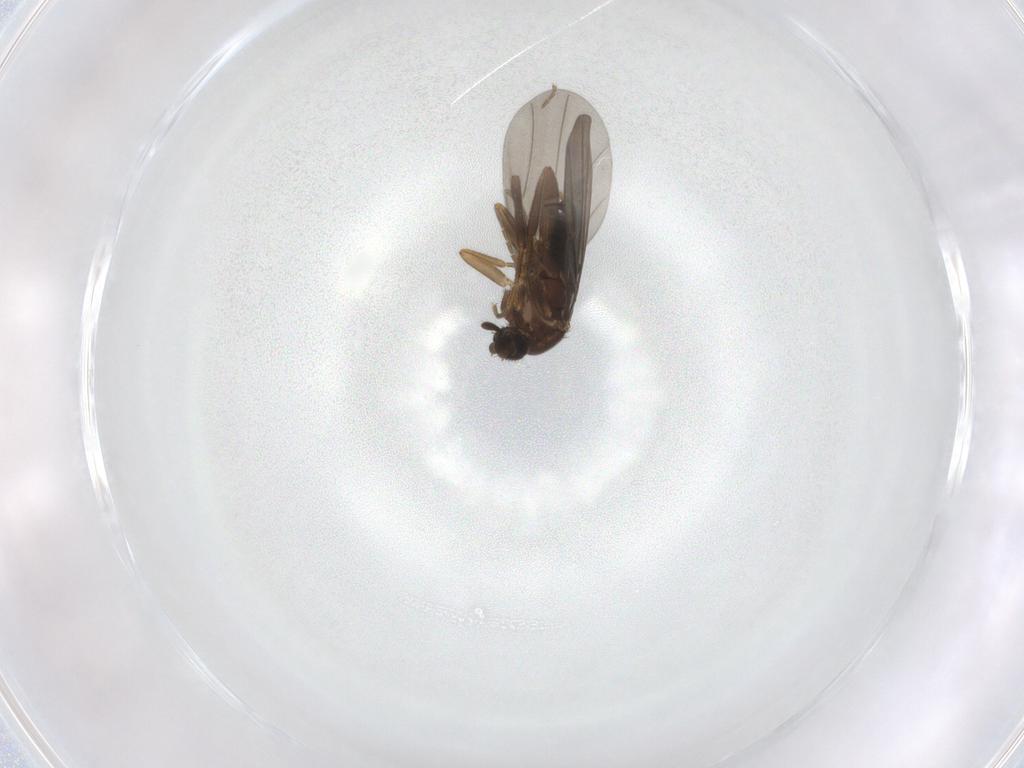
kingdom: Animalia
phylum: Arthropoda
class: Insecta
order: Diptera
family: Phoridae
